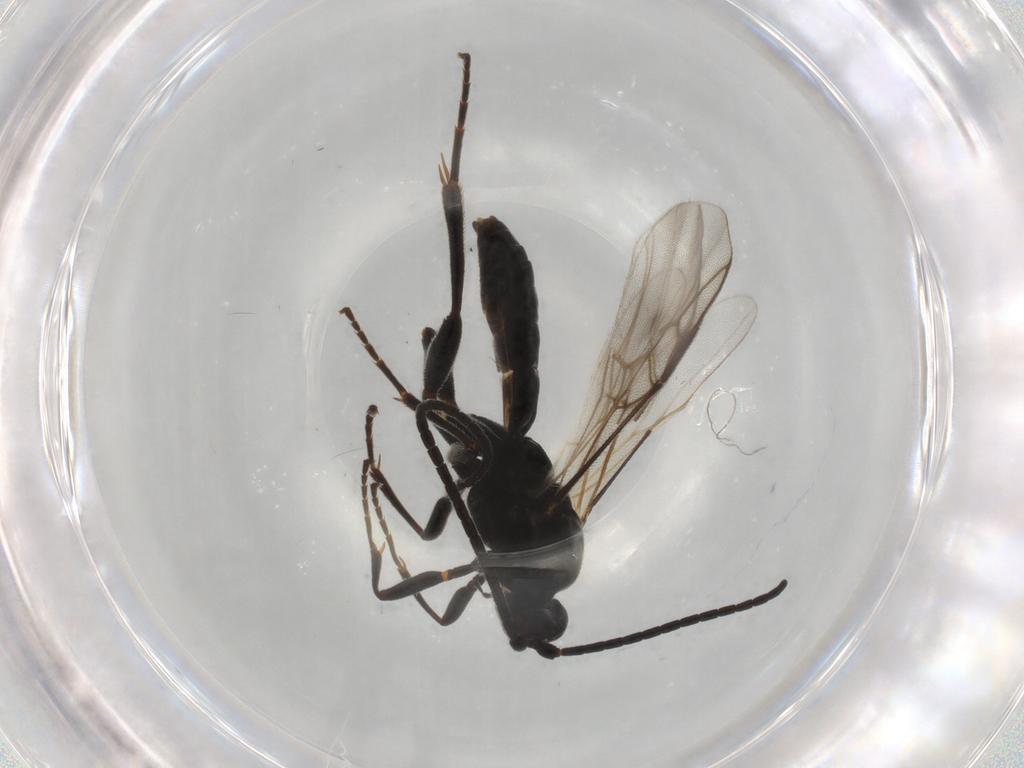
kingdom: Animalia
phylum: Arthropoda
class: Insecta
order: Hymenoptera
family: Braconidae
